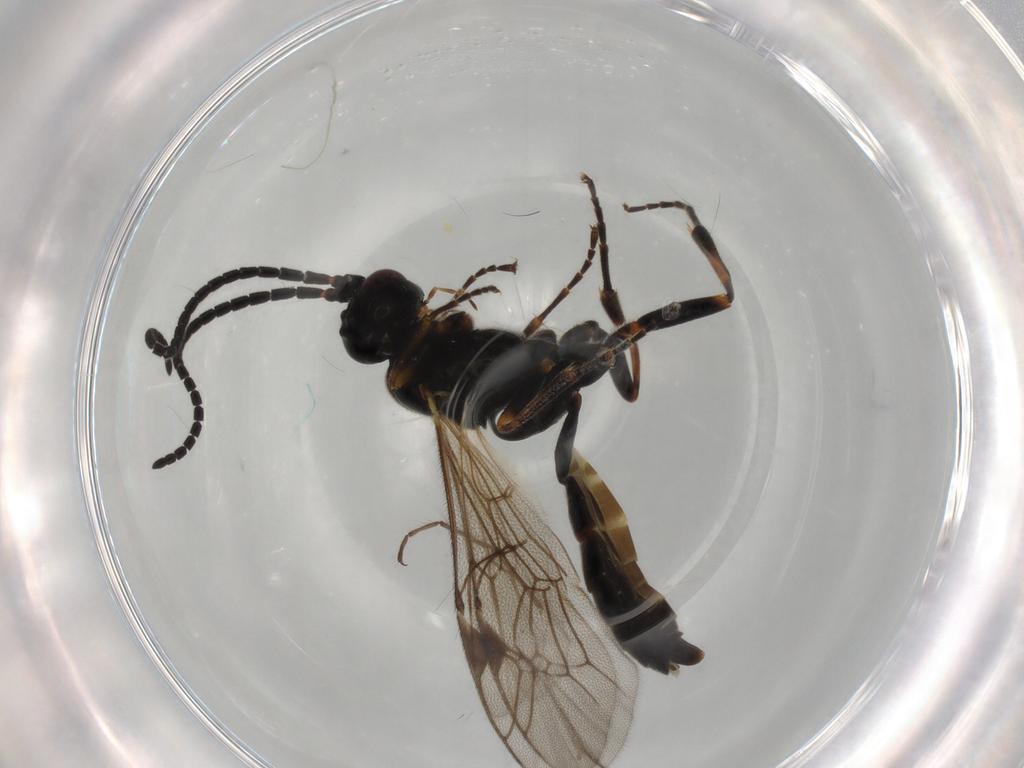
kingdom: Animalia
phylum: Arthropoda
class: Insecta
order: Hymenoptera
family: Ichneumonidae
